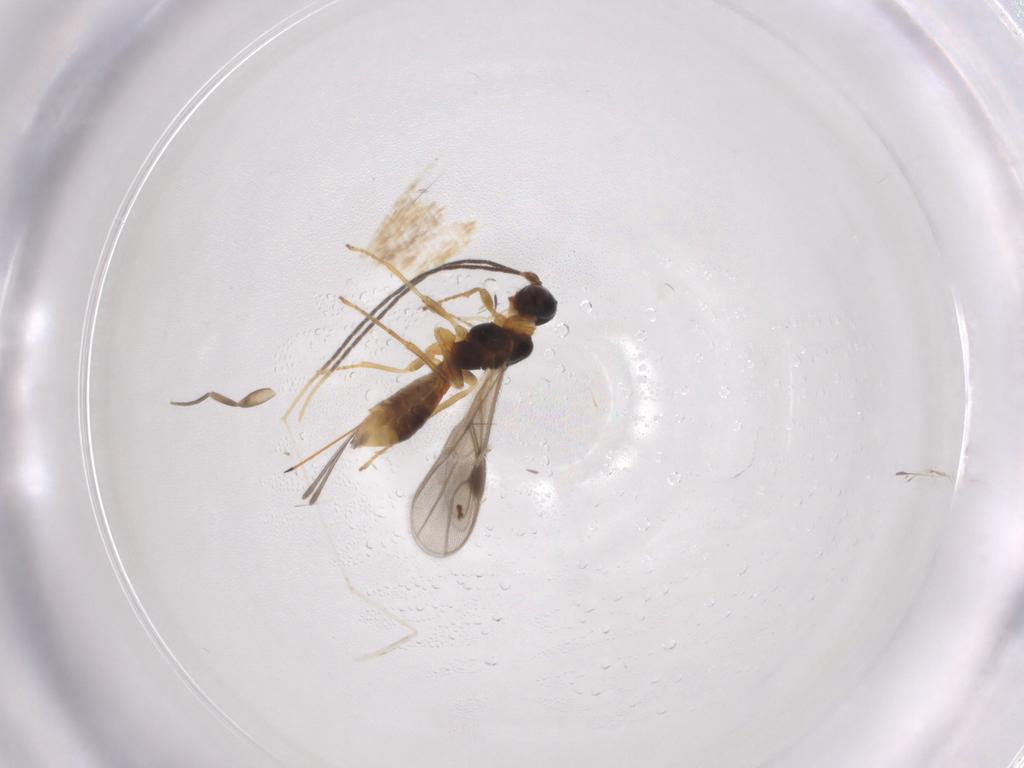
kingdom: Animalia
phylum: Arthropoda
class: Insecta
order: Hymenoptera
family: Braconidae
